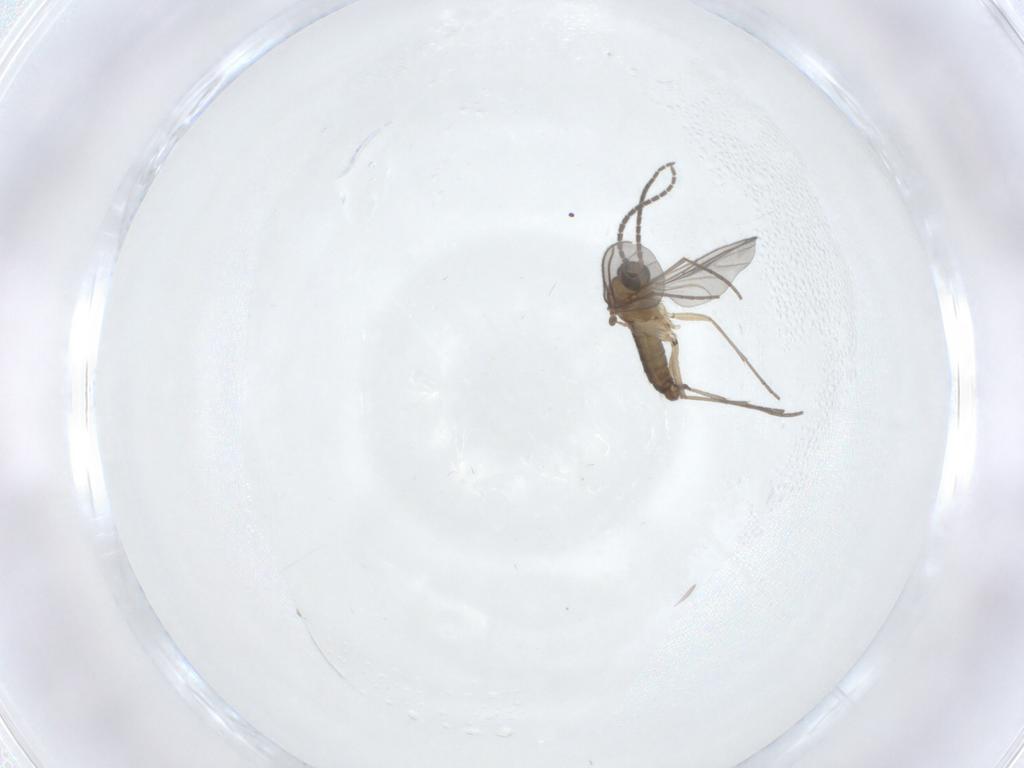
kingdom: Animalia
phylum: Arthropoda
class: Insecta
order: Diptera
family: Sciaridae
